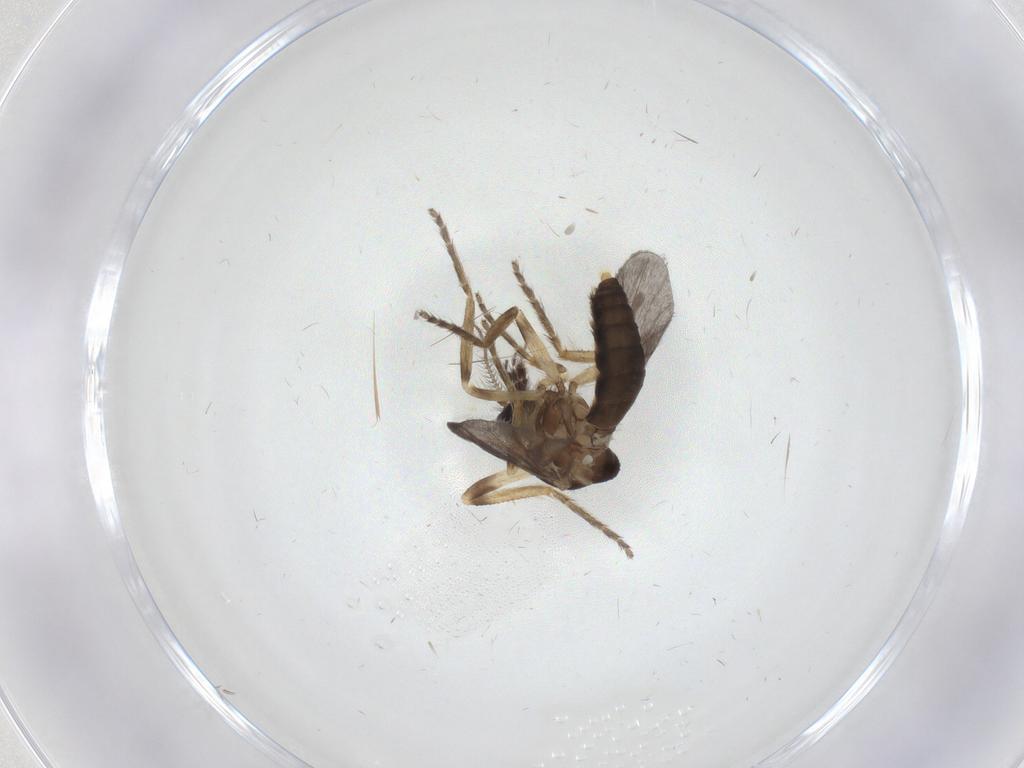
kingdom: Animalia
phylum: Arthropoda
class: Insecta
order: Diptera
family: Ceratopogonidae
